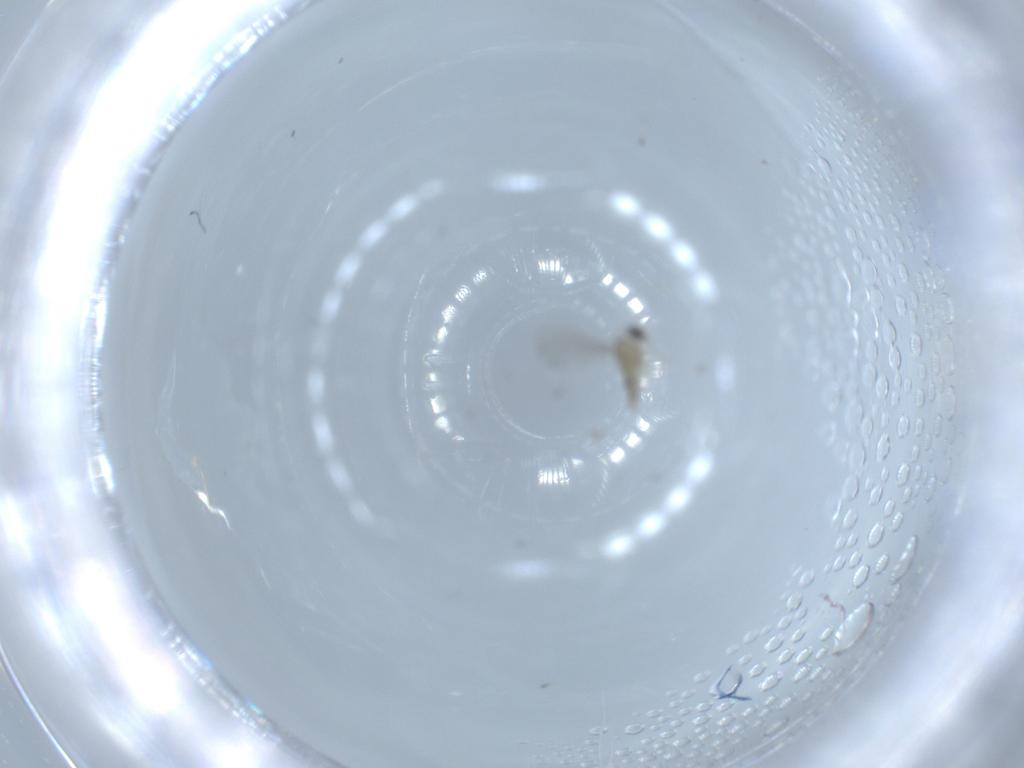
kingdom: Animalia
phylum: Arthropoda
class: Insecta
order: Diptera
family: Cecidomyiidae
